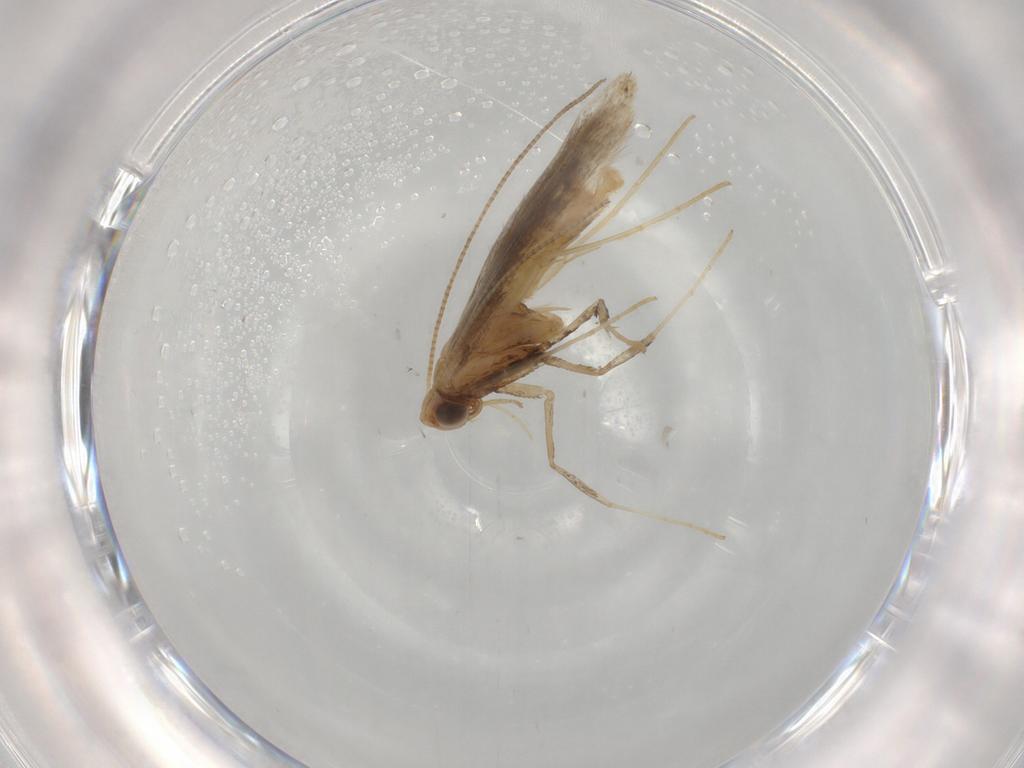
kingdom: Animalia
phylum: Arthropoda
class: Insecta
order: Lepidoptera
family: Gracillariidae
